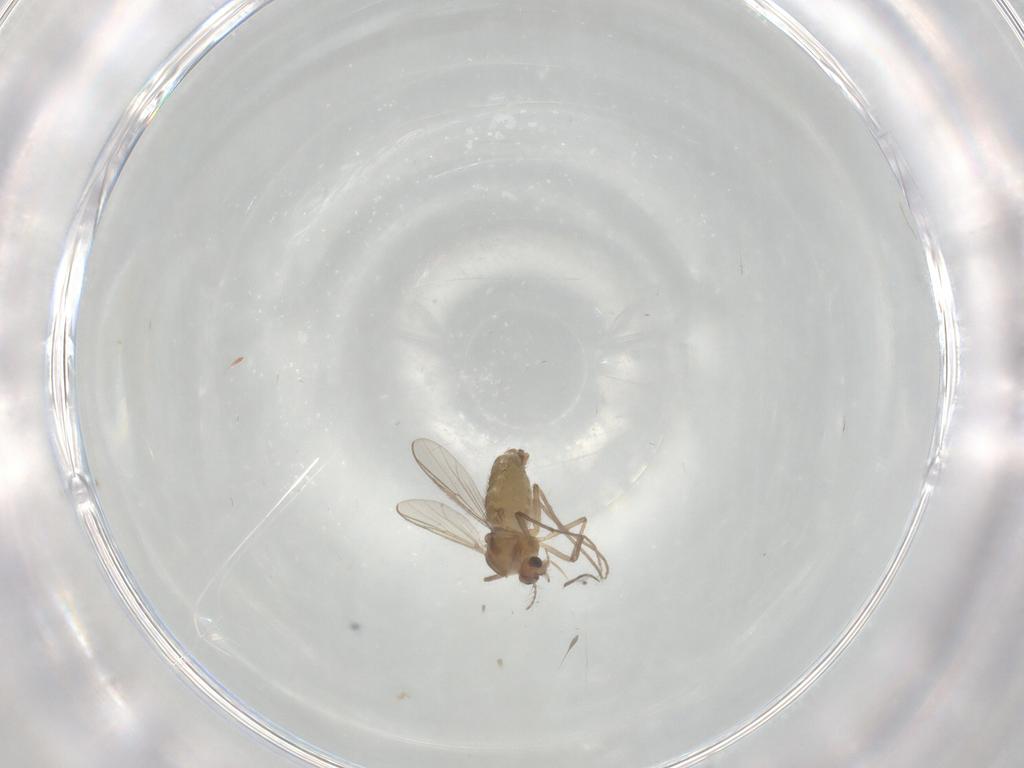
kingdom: Animalia
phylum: Arthropoda
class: Insecta
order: Diptera
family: Chironomidae
